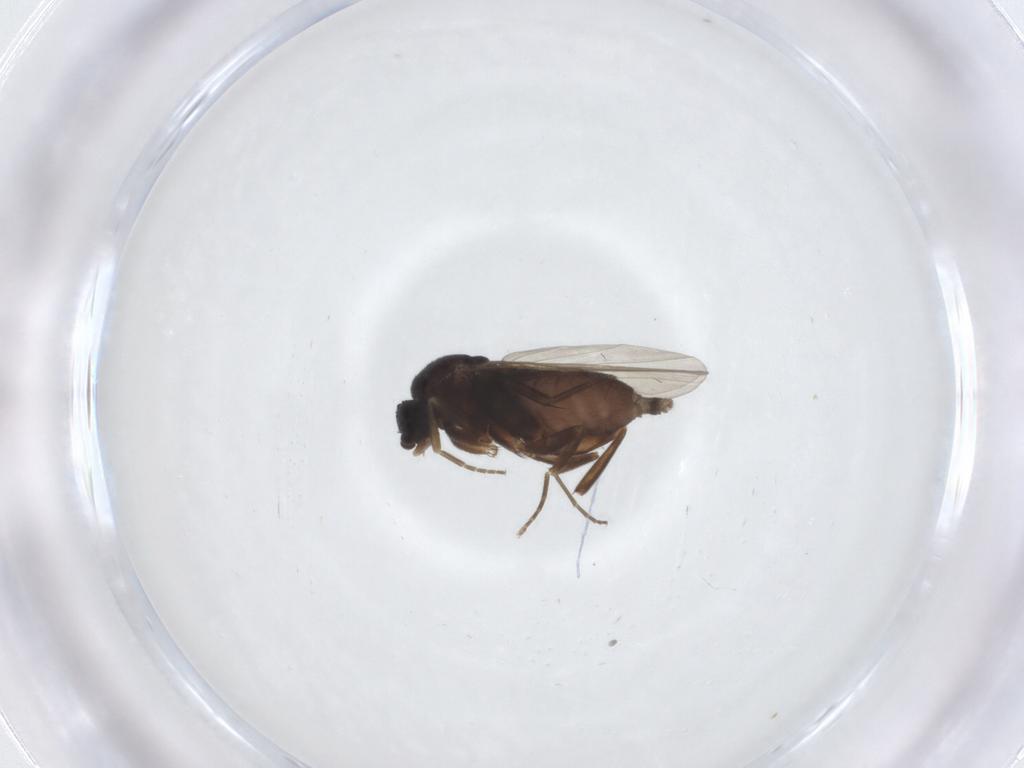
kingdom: Animalia
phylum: Arthropoda
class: Insecta
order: Diptera
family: Phoridae
